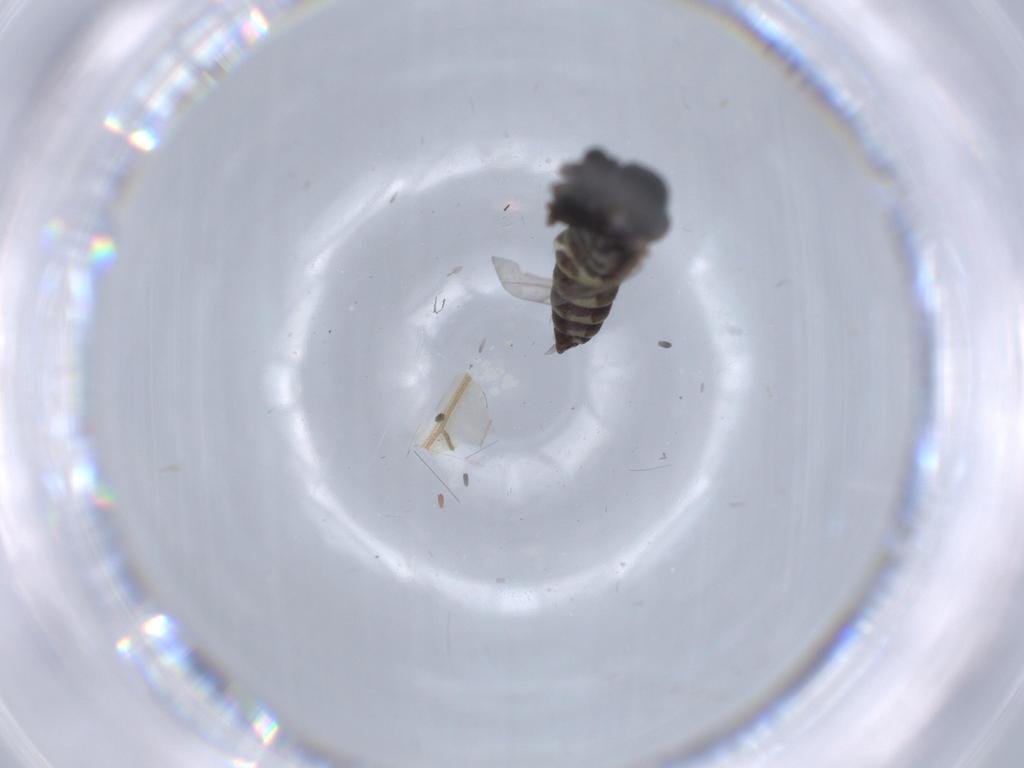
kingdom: Animalia
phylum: Arthropoda
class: Insecta
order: Diptera
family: Chironomidae
